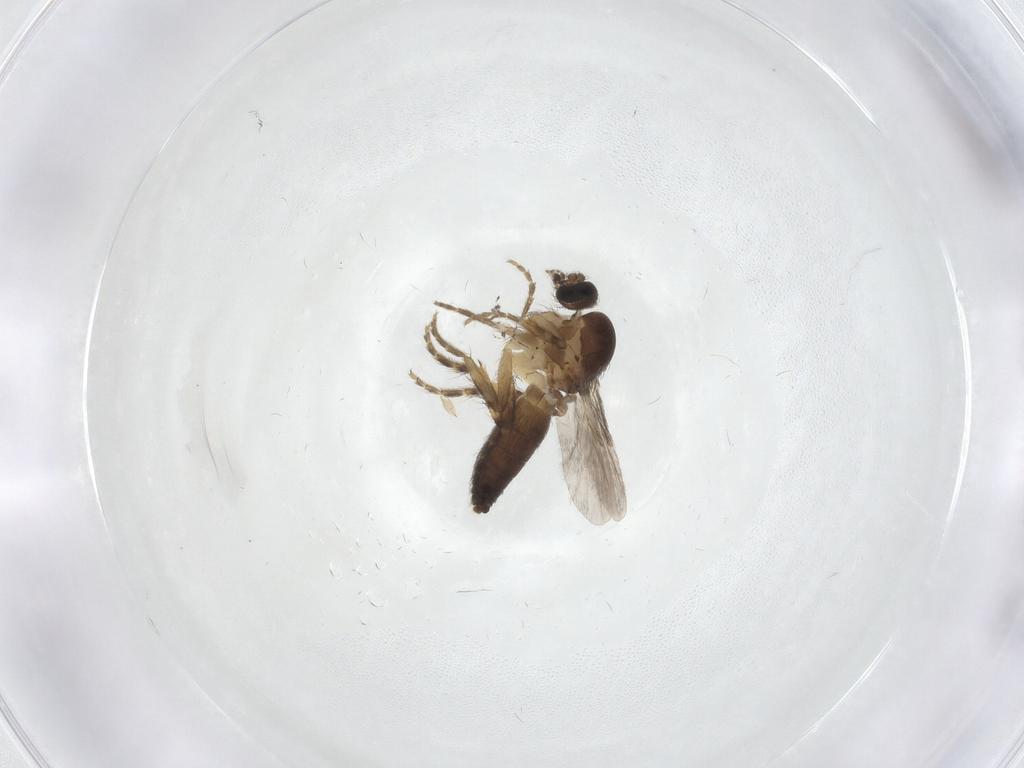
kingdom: Animalia
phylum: Arthropoda
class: Insecta
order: Diptera
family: Ceratopogonidae
